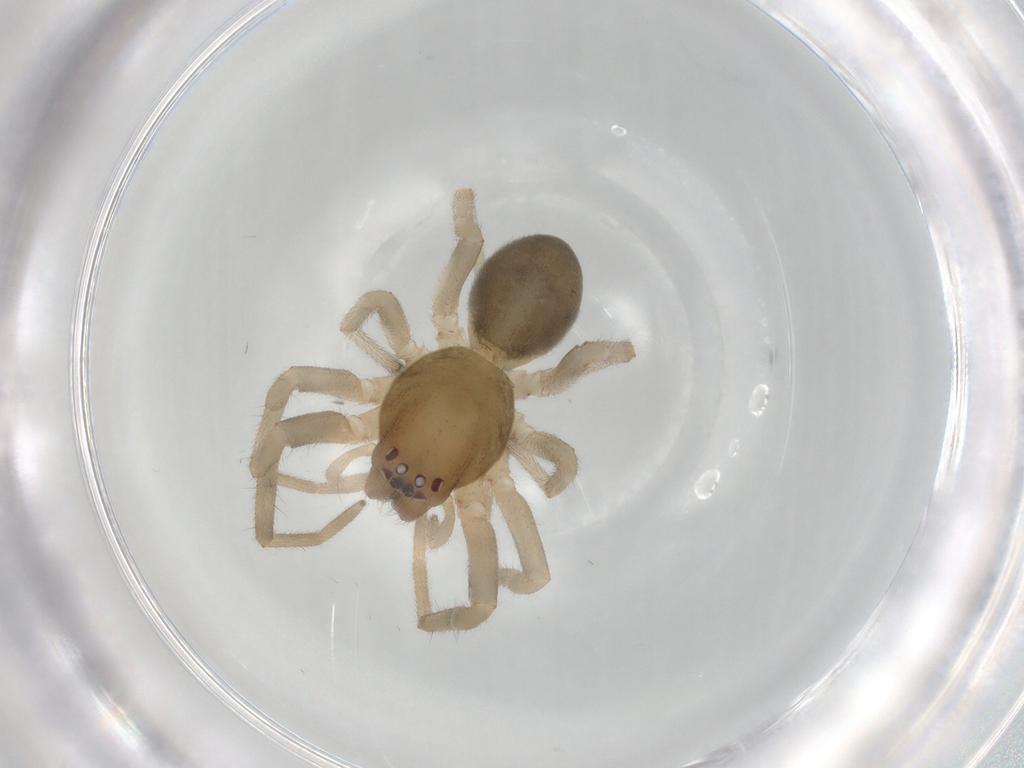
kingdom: Animalia
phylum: Arthropoda
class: Arachnida
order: Araneae
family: Trachelidae
